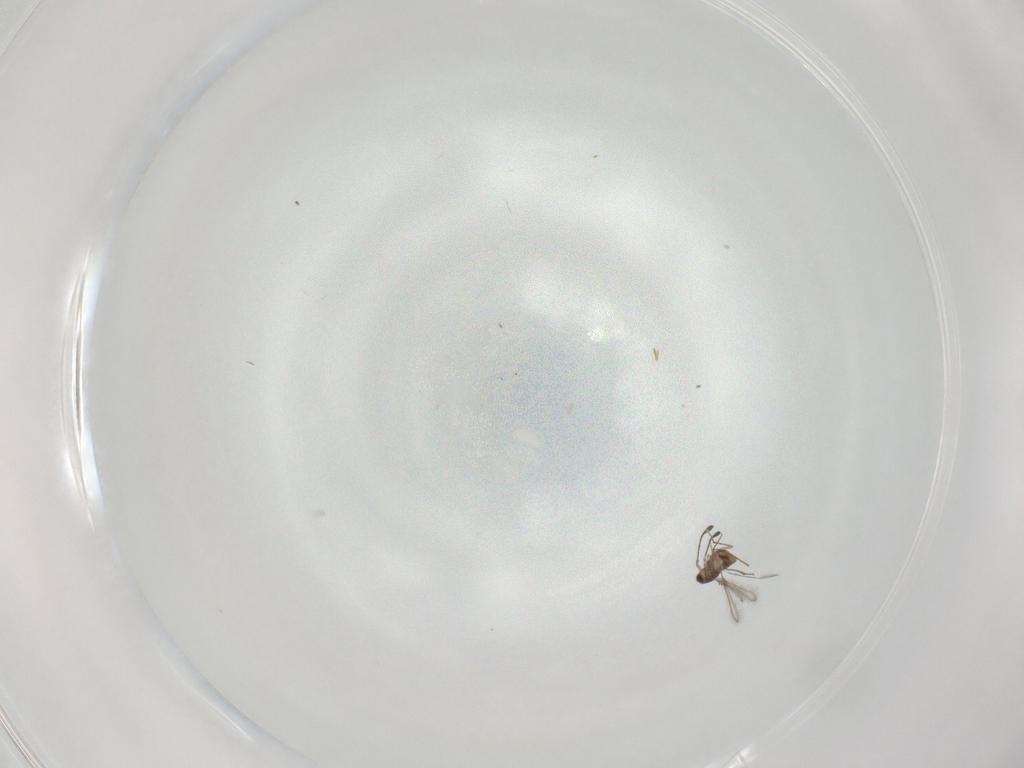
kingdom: Animalia
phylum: Arthropoda
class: Insecta
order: Hymenoptera
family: Mymaridae
